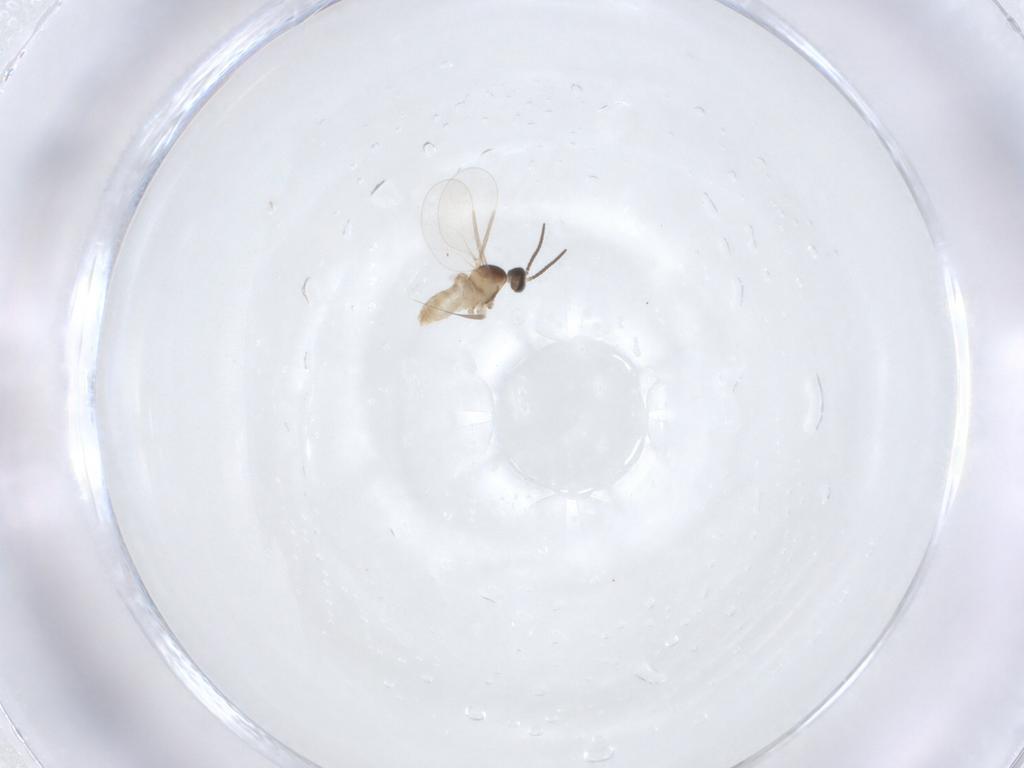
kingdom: Animalia
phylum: Arthropoda
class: Insecta
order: Diptera
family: Cecidomyiidae
